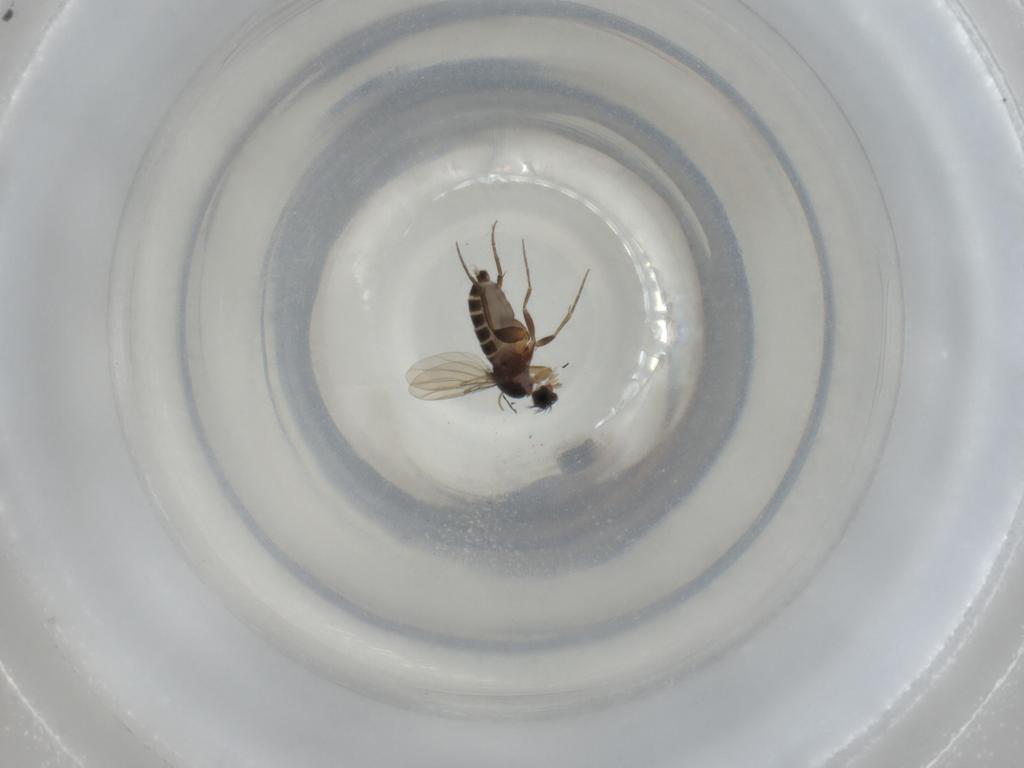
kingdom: Animalia
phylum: Arthropoda
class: Insecta
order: Diptera
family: Phoridae
